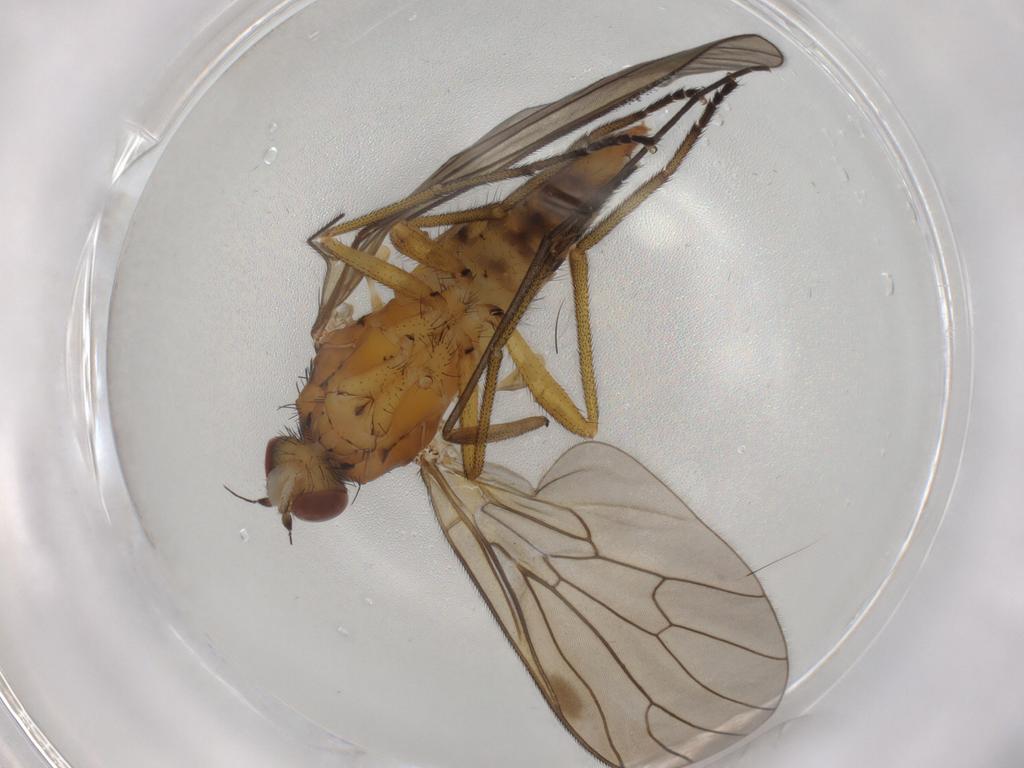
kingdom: Animalia
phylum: Arthropoda
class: Insecta
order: Diptera
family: Brachystomatidae
